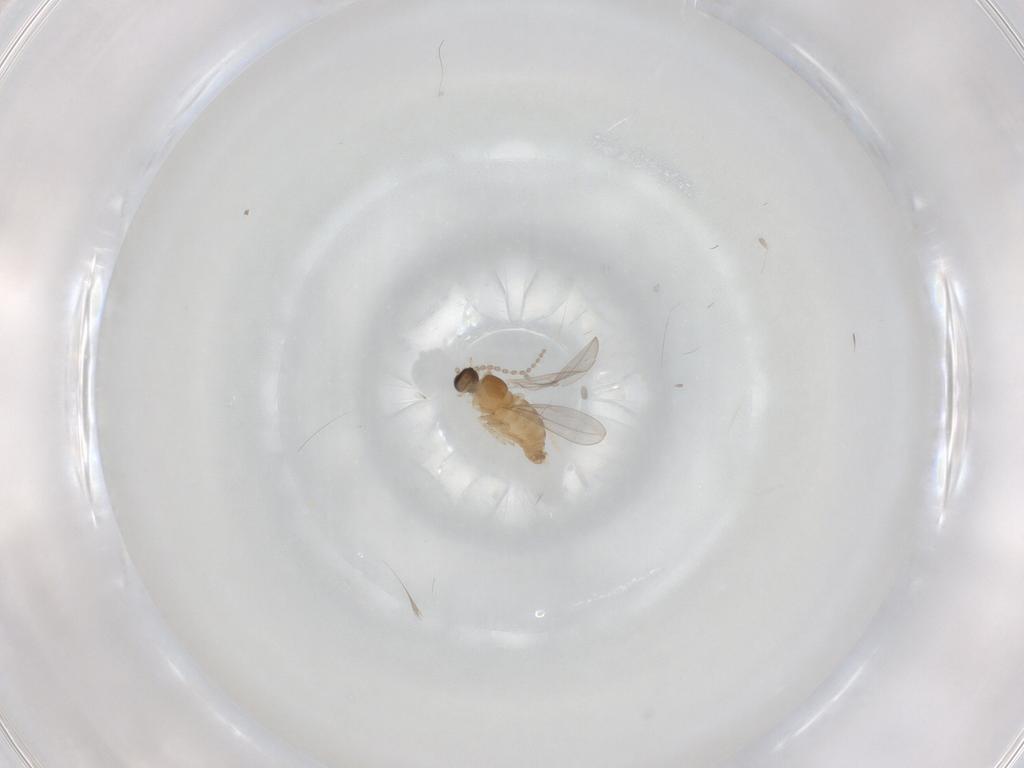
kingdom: Animalia
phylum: Arthropoda
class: Insecta
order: Diptera
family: Cecidomyiidae
